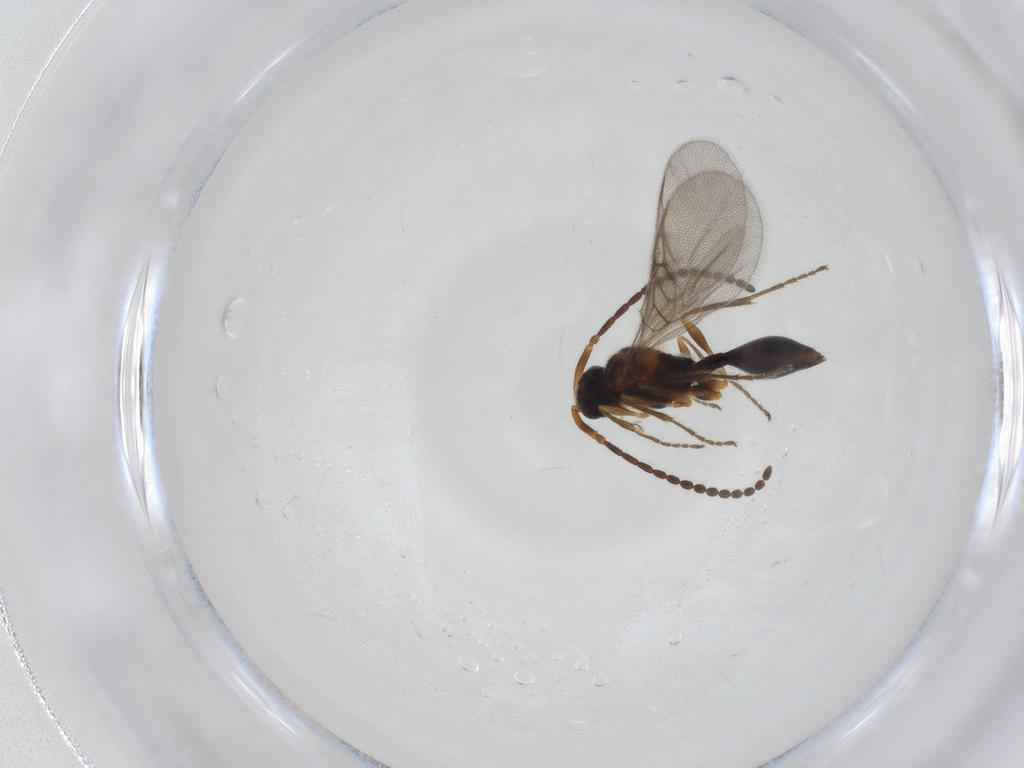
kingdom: Animalia
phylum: Arthropoda
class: Insecta
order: Hymenoptera
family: Diapriidae
